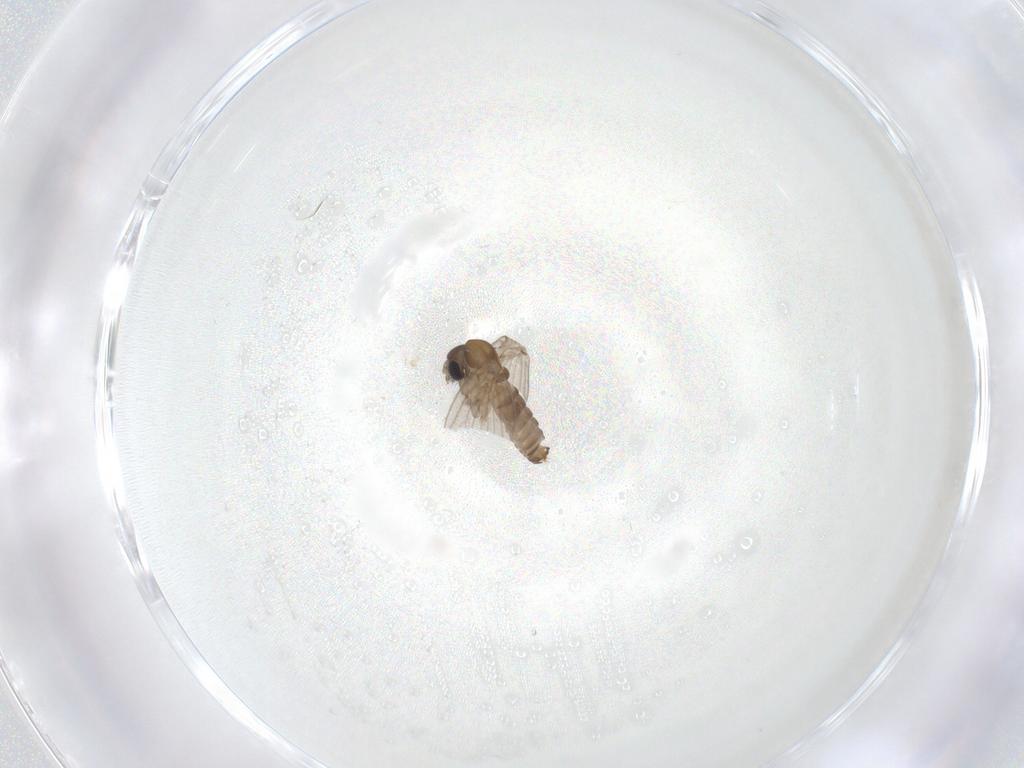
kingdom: Animalia
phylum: Arthropoda
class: Insecta
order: Diptera
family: Psychodidae
